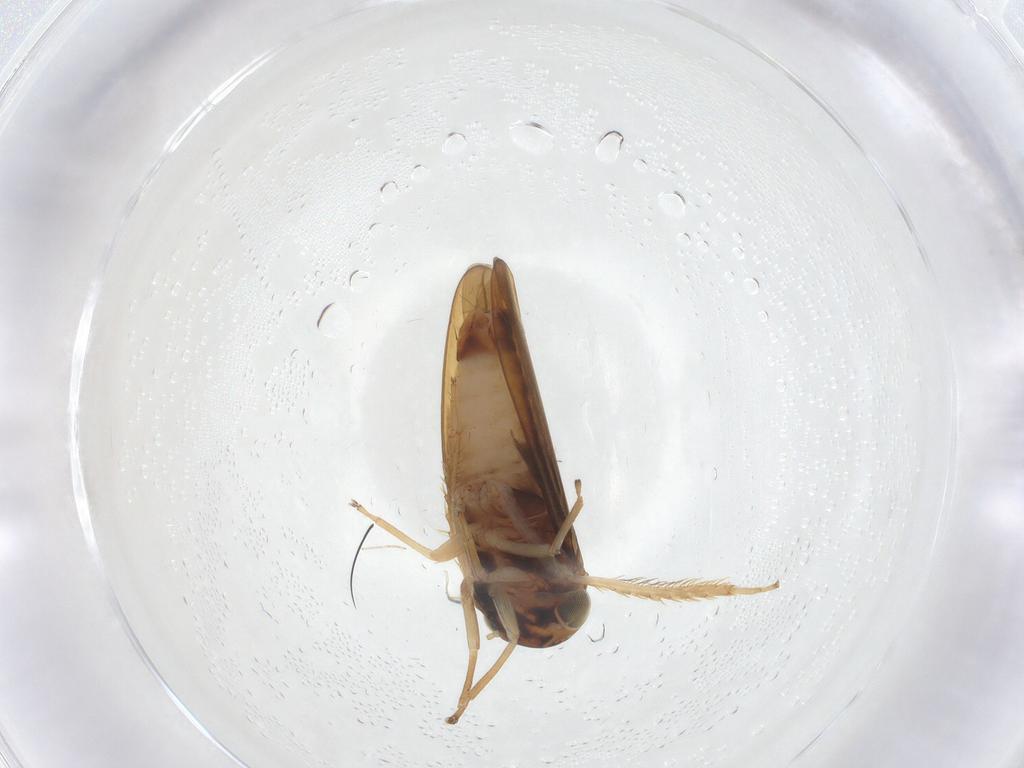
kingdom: Animalia
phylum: Arthropoda
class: Insecta
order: Hemiptera
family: Cicadellidae
